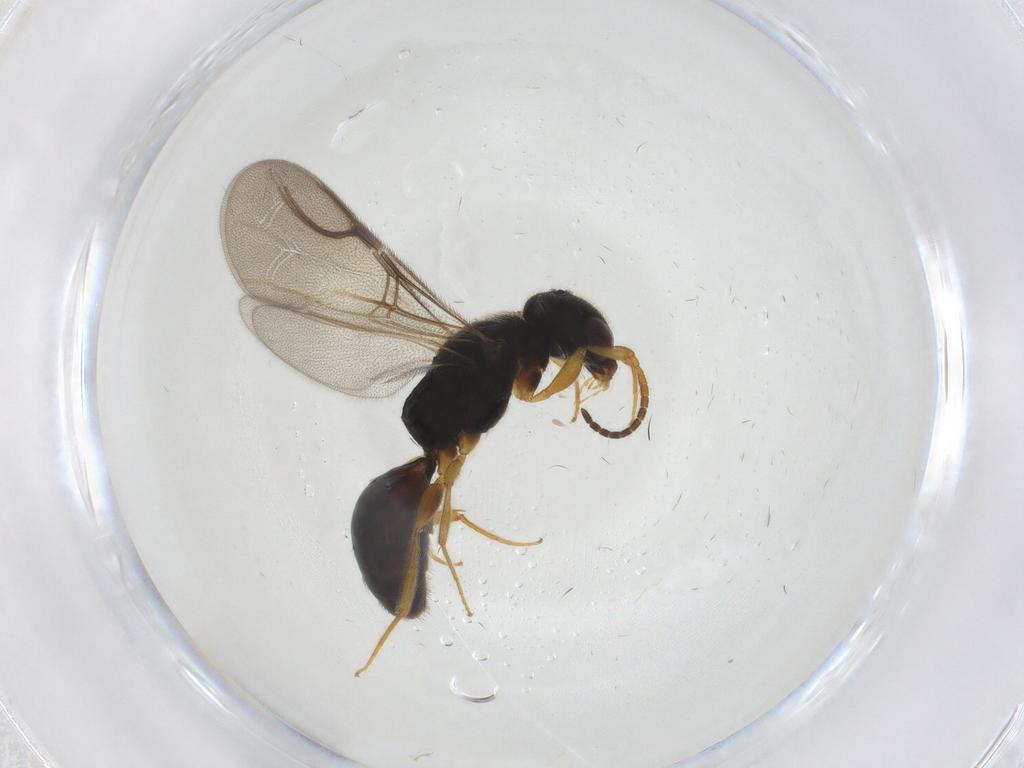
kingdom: Animalia
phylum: Arthropoda
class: Insecta
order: Hymenoptera
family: Bethylidae
